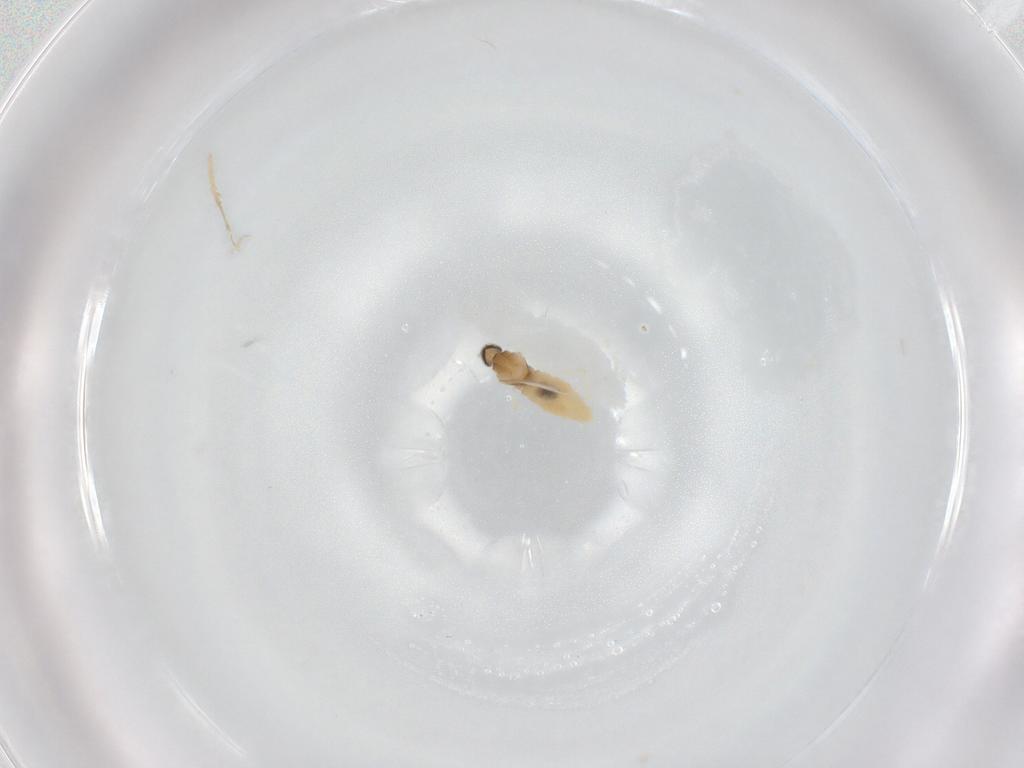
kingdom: Animalia
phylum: Arthropoda
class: Insecta
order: Diptera
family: Cecidomyiidae
